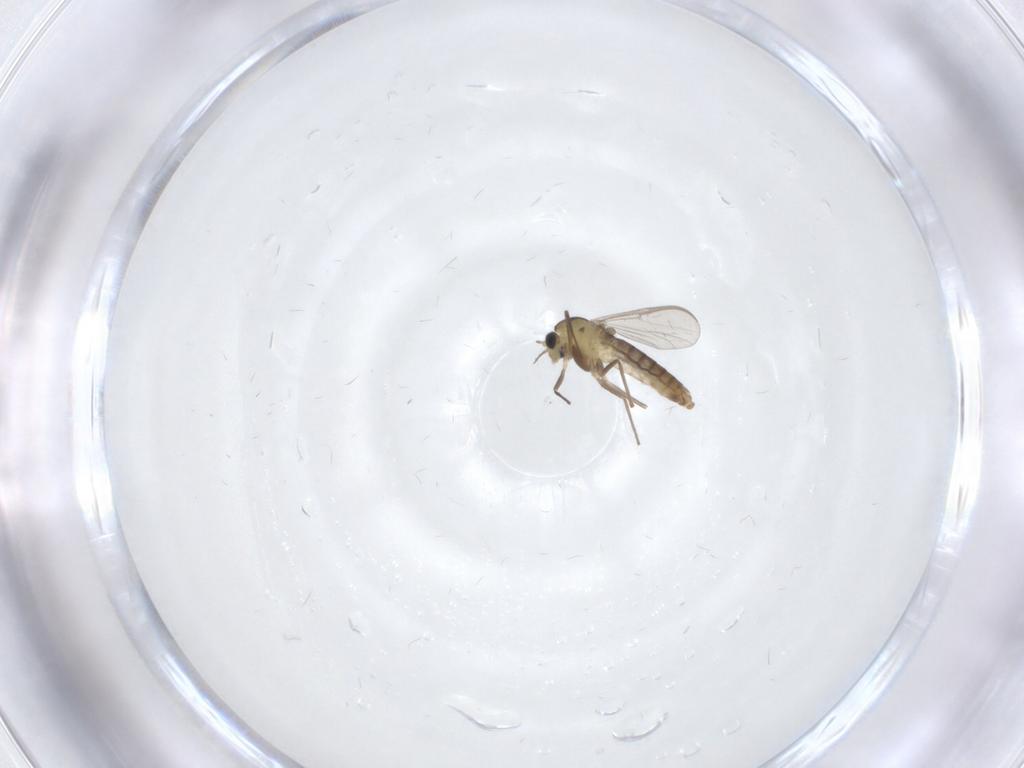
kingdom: Animalia
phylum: Arthropoda
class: Insecta
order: Diptera
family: Chironomidae
